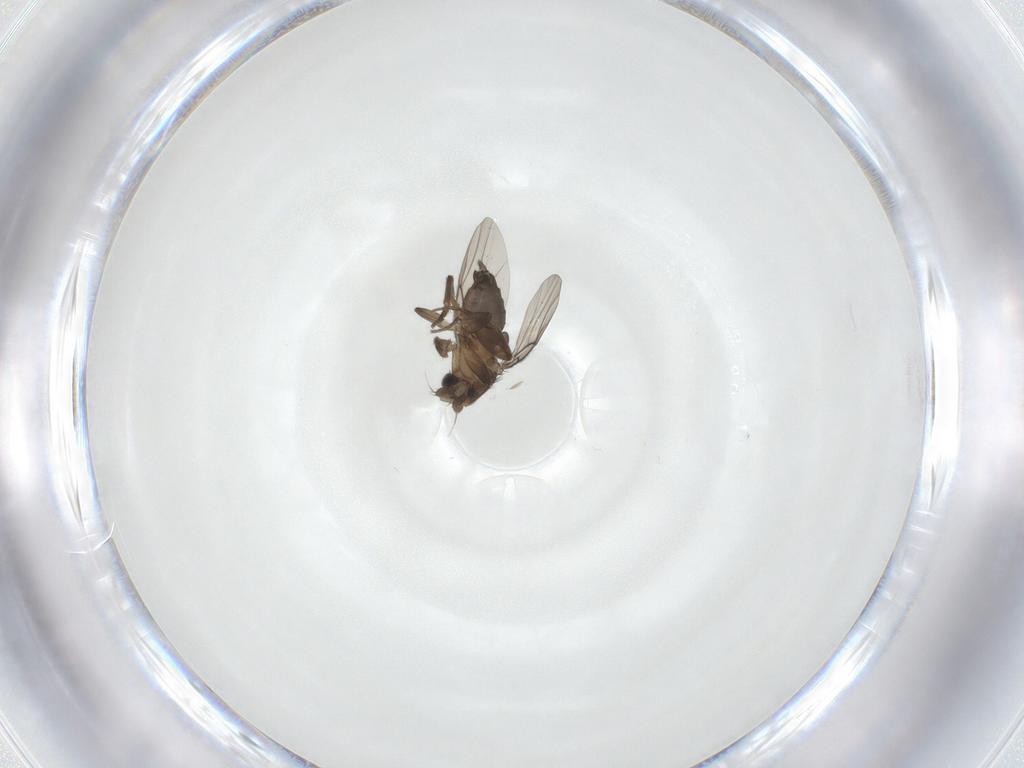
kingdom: Animalia
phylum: Arthropoda
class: Insecta
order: Diptera
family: Phoridae
